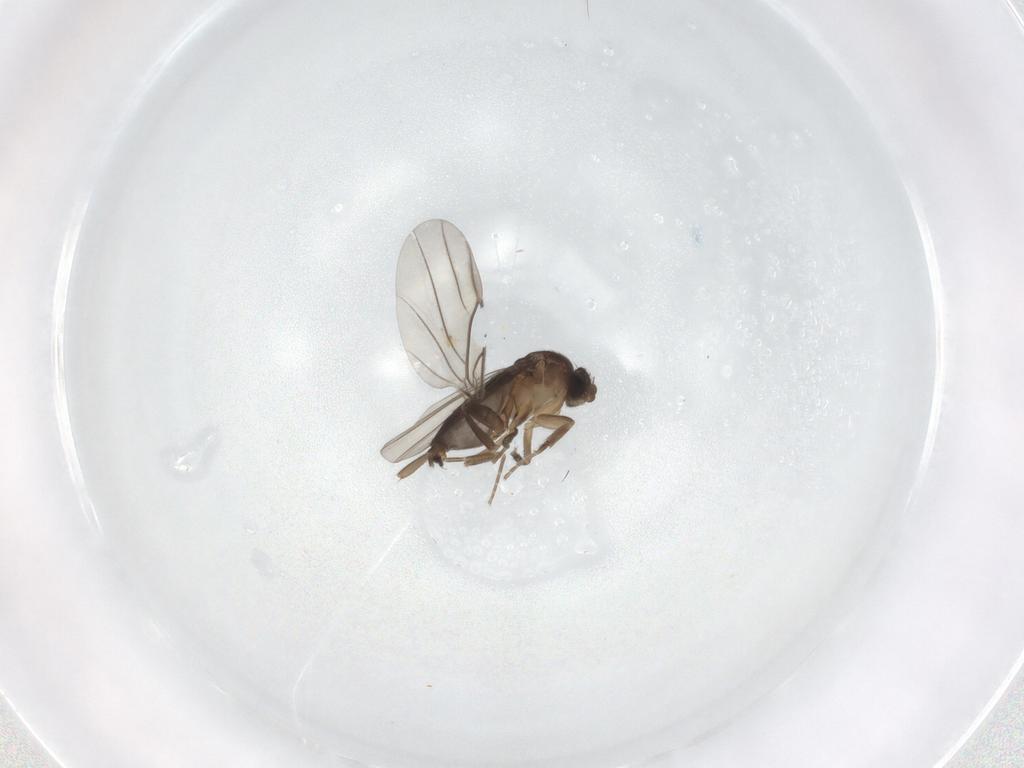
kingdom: Animalia
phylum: Arthropoda
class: Insecta
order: Diptera
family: Phoridae
